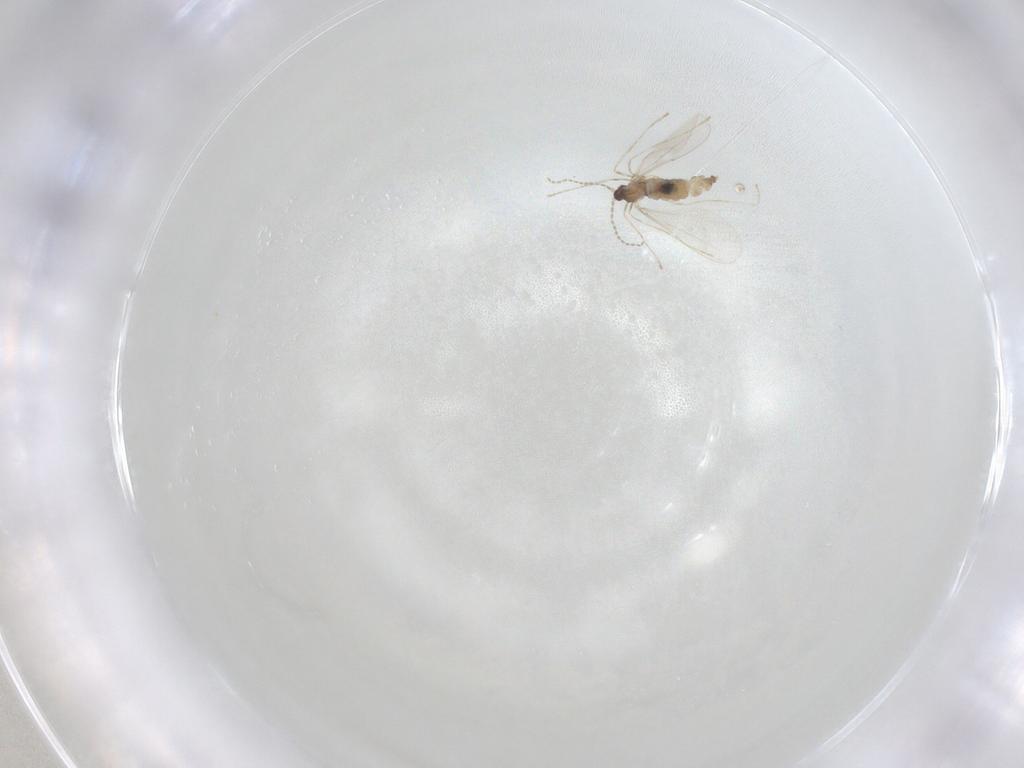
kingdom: Animalia
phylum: Arthropoda
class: Insecta
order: Diptera
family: Cecidomyiidae
